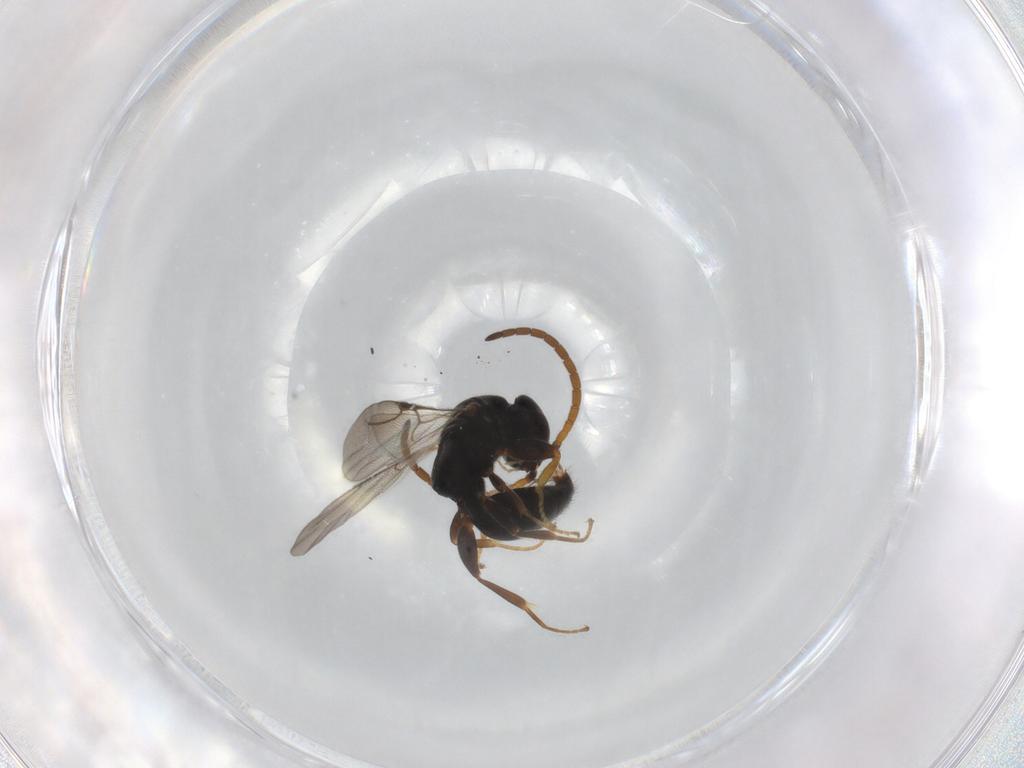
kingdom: Animalia
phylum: Arthropoda
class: Insecta
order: Hymenoptera
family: Bethylidae
